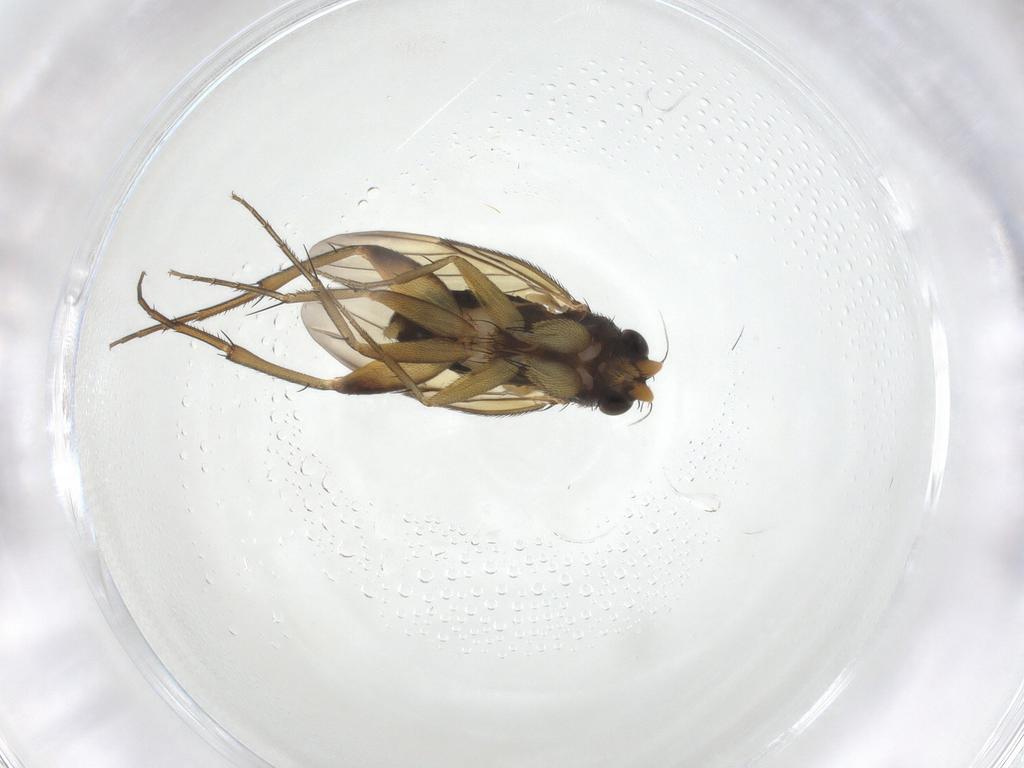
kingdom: Animalia
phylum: Arthropoda
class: Insecta
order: Diptera
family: Phoridae
